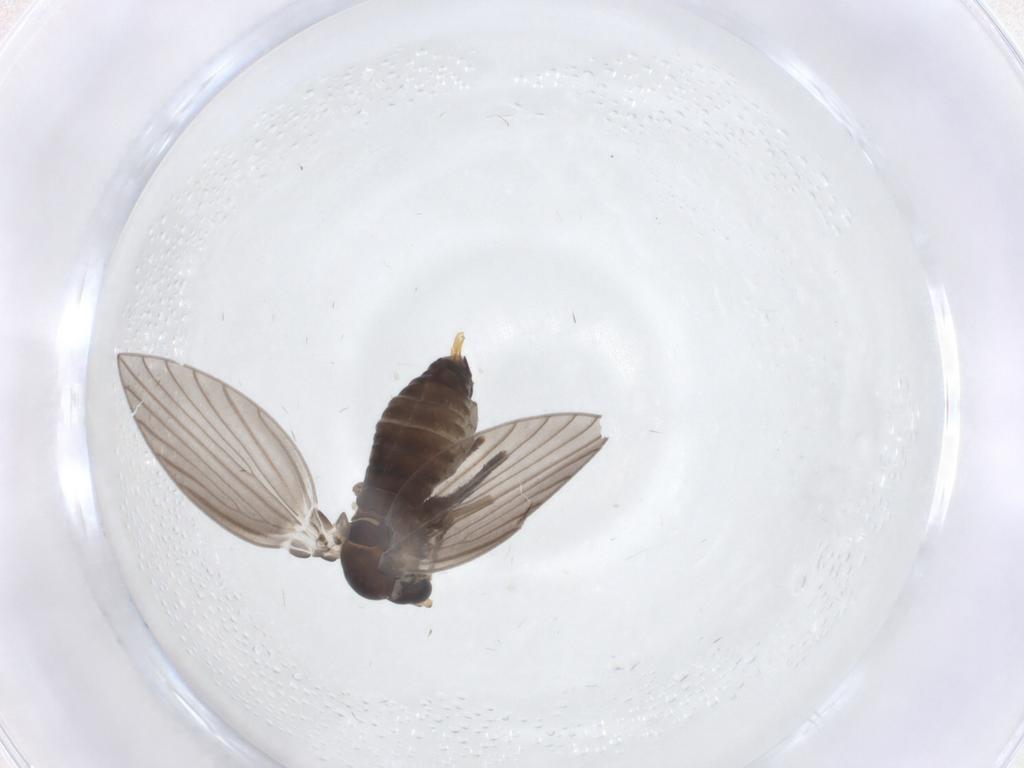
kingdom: Animalia
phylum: Arthropoda
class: Insecta
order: Diptera
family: Psychodidae
